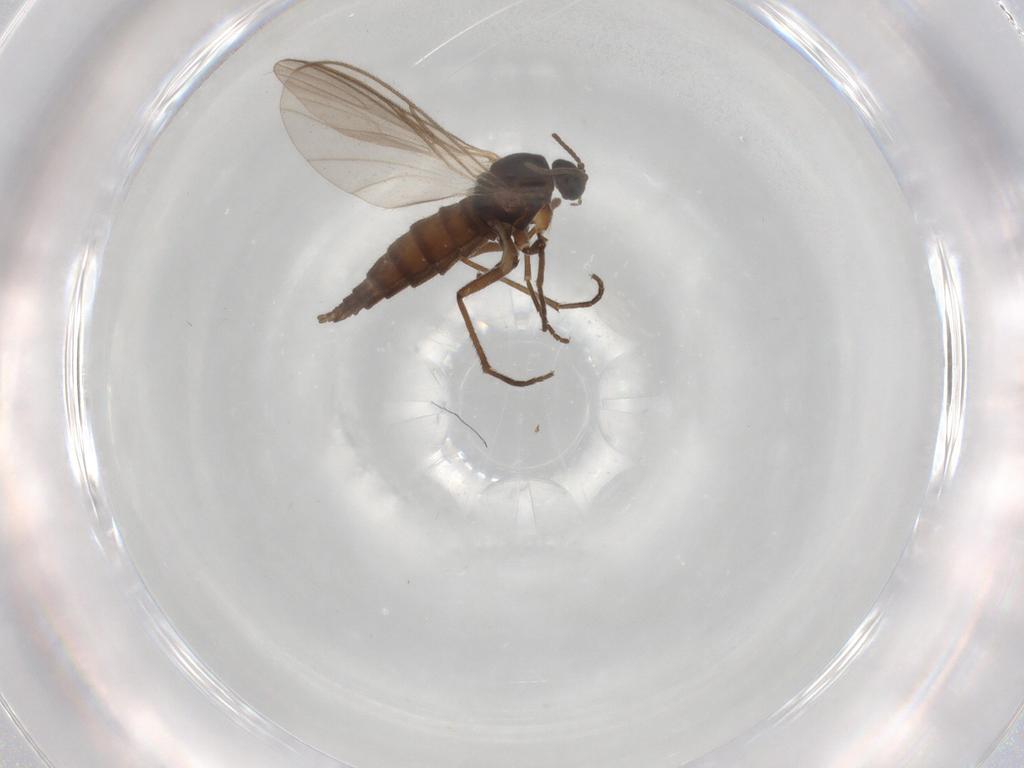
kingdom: Animalia
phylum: Arthropoda
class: Insecta
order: Diptera
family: Sciaridae
